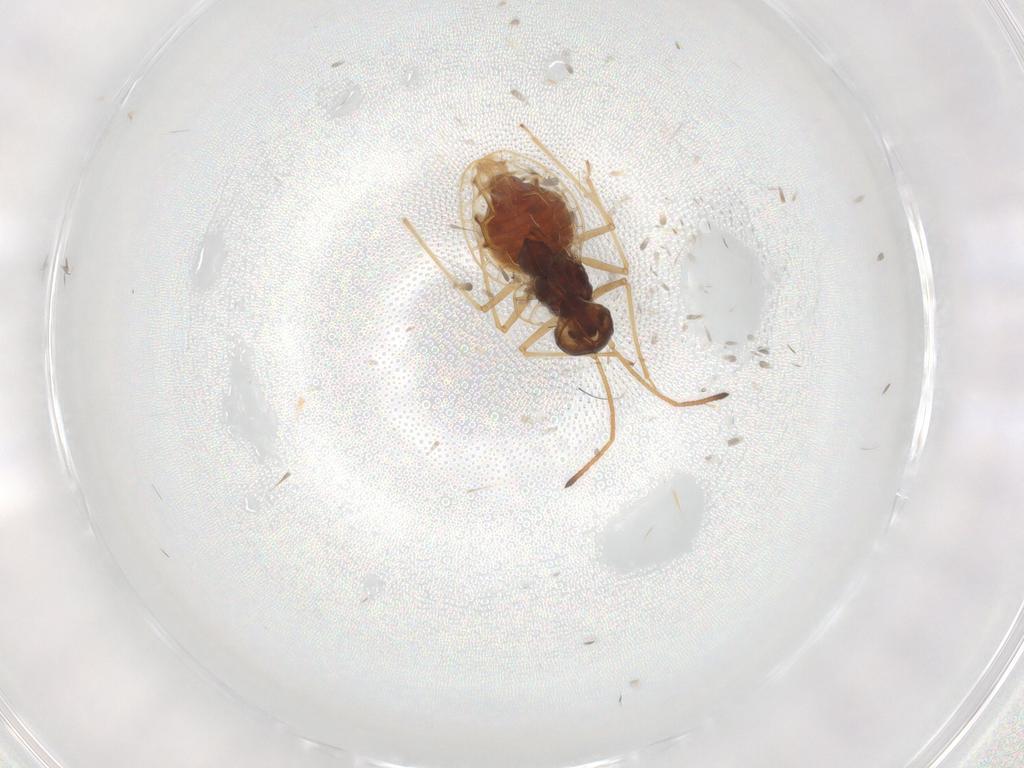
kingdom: Animalia
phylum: Arthropoda
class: Insecta
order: Hemiptera
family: Tingidae
